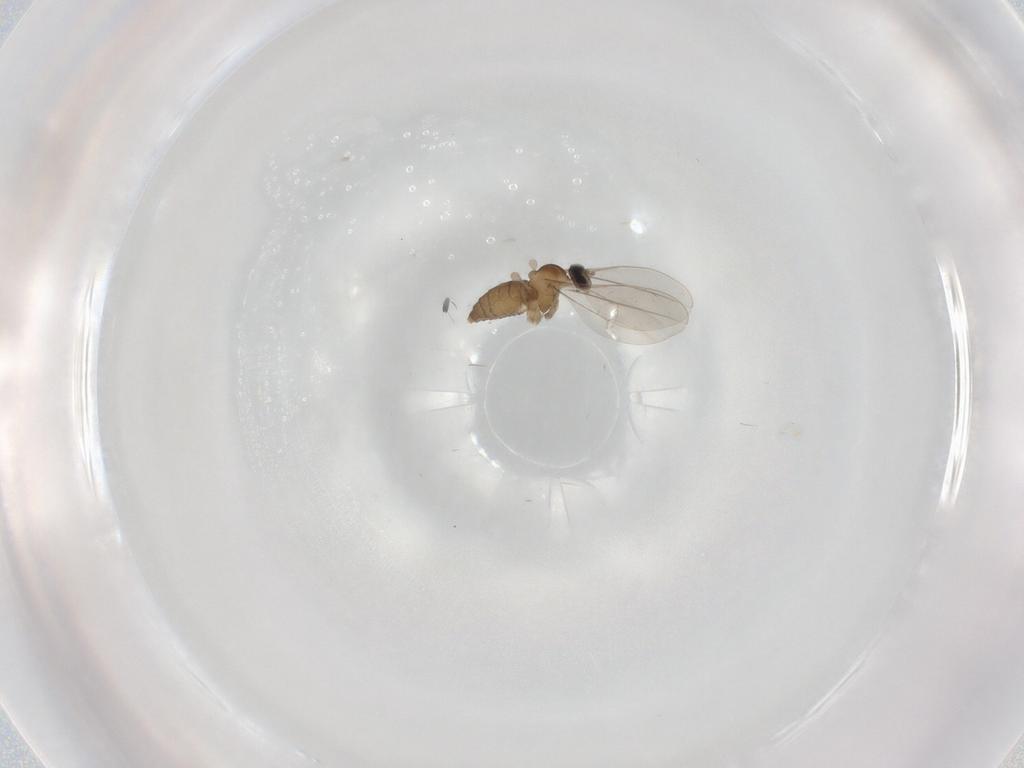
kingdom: Animalia
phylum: Arthropoda
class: Insecta
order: Diptera
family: Cecidomyiidae
